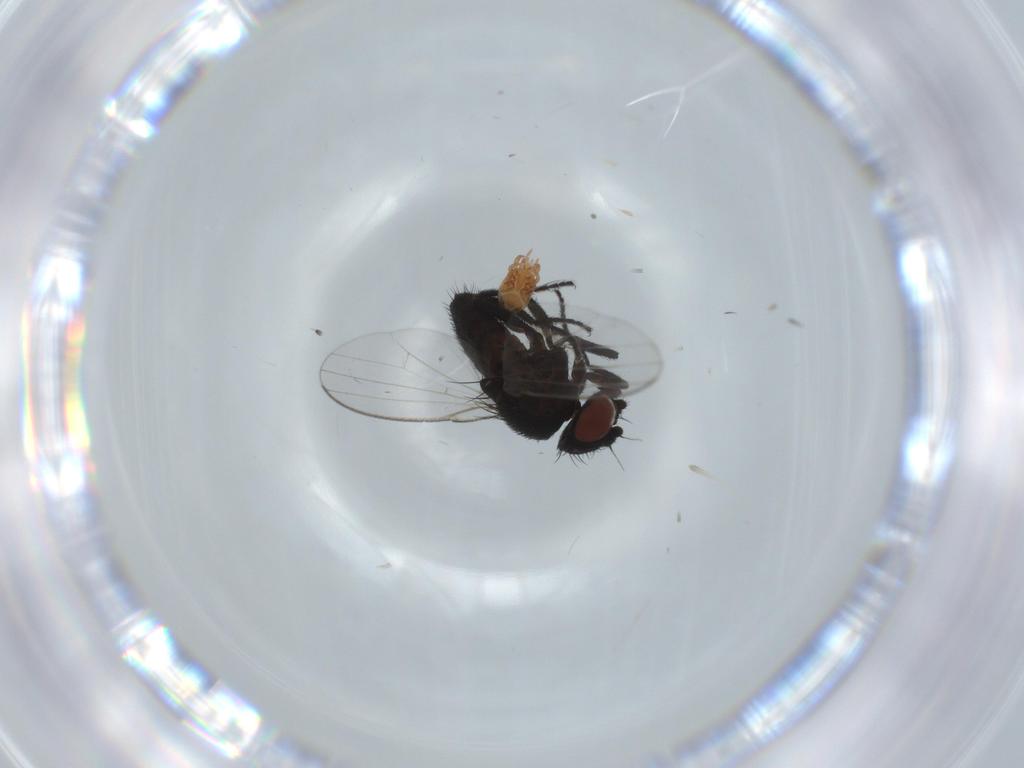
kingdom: Animalia
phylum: Arthropoda
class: Insecta
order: Diptera
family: Milichiidae
